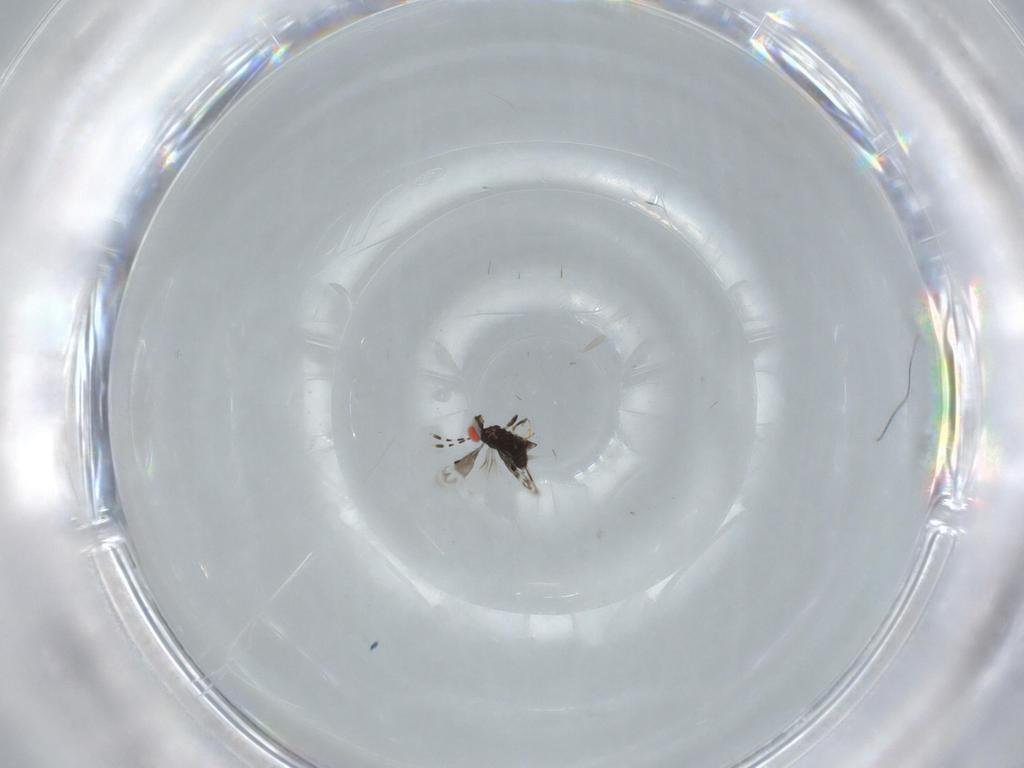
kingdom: Animalia
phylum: Arthropoda
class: Insecta
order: Hymenoptera
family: Azotidae
